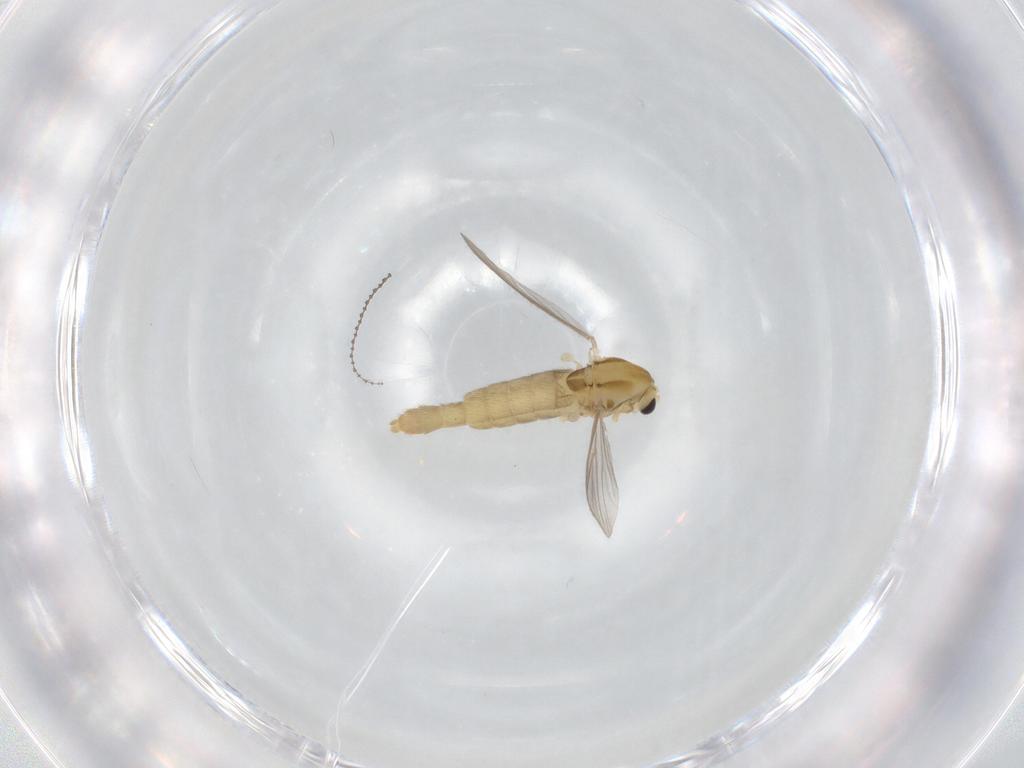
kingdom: Animalia
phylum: Arthropoda
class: Insecta
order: Diptera
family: Chironomidae
